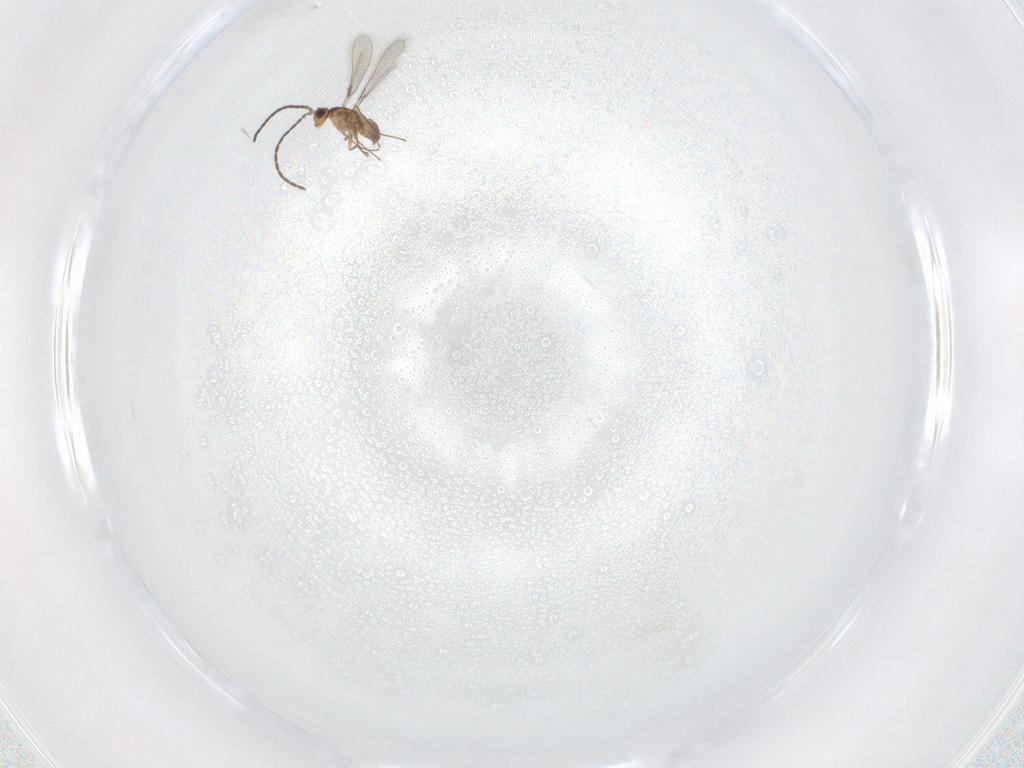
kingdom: Animalia
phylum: Arthropoda
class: Insecta
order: Hymenoptera
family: Mymaridae
